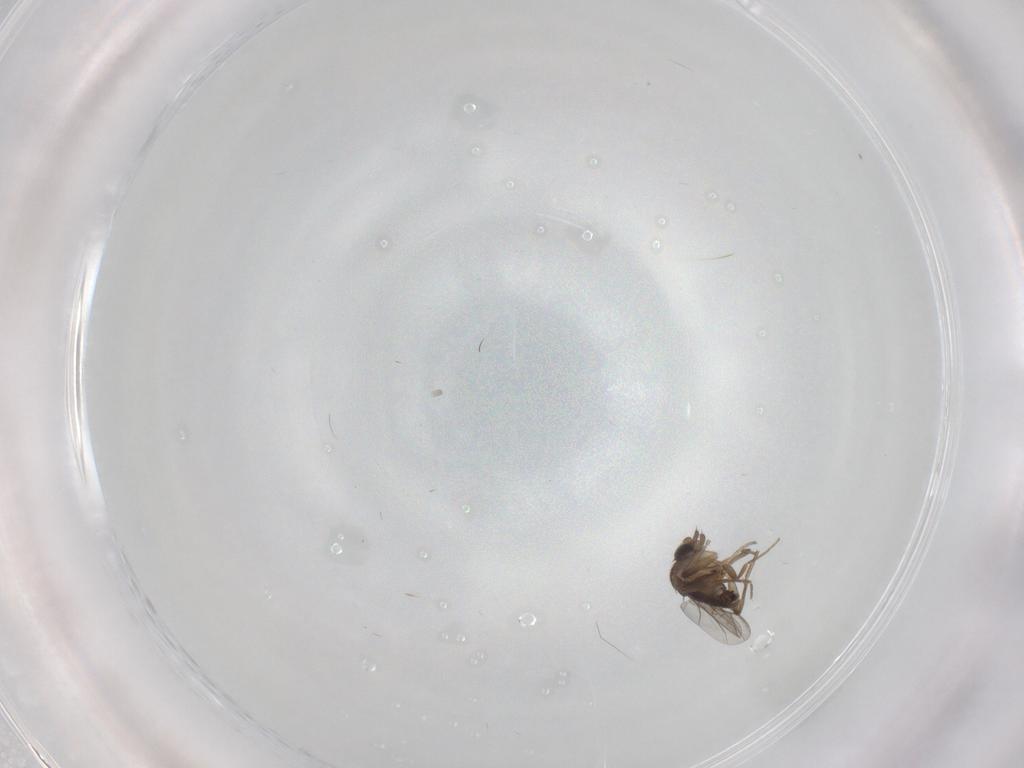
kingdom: Animalia
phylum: Arthropoda
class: Insecta
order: Diptera
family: Phoridae
